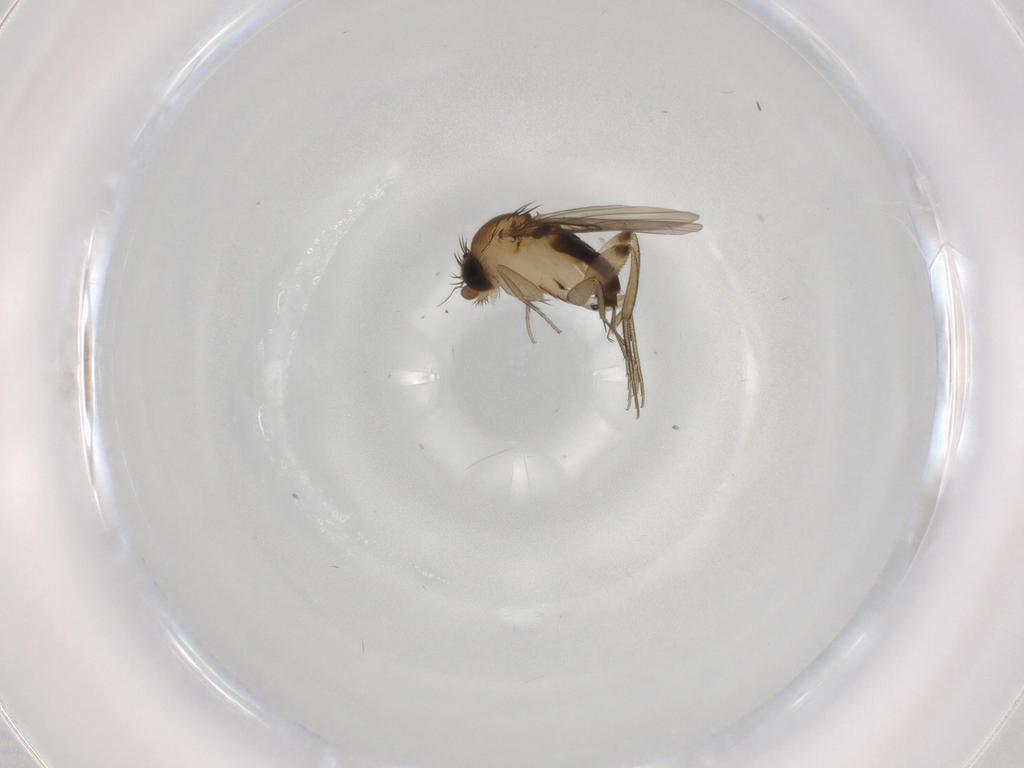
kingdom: Animalia
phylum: Arthropoda
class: Insecta
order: Diptera
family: Phoridae
